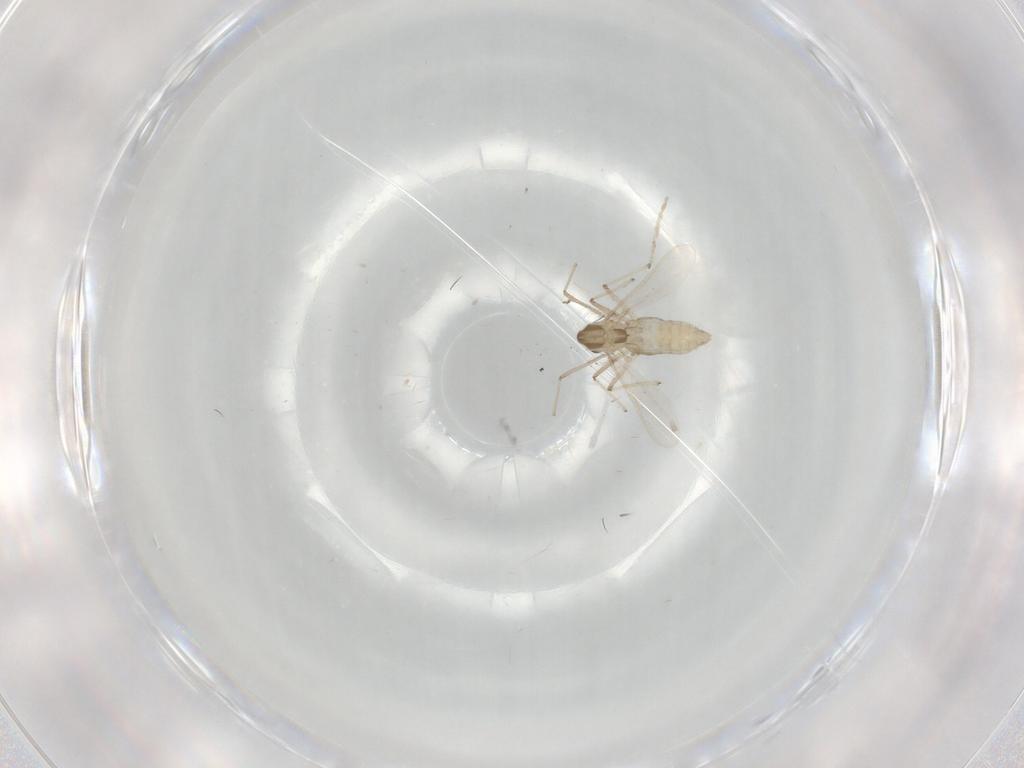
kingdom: Animalia
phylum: Arthropoda
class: Insecta
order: Diptera
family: Chironomidae
